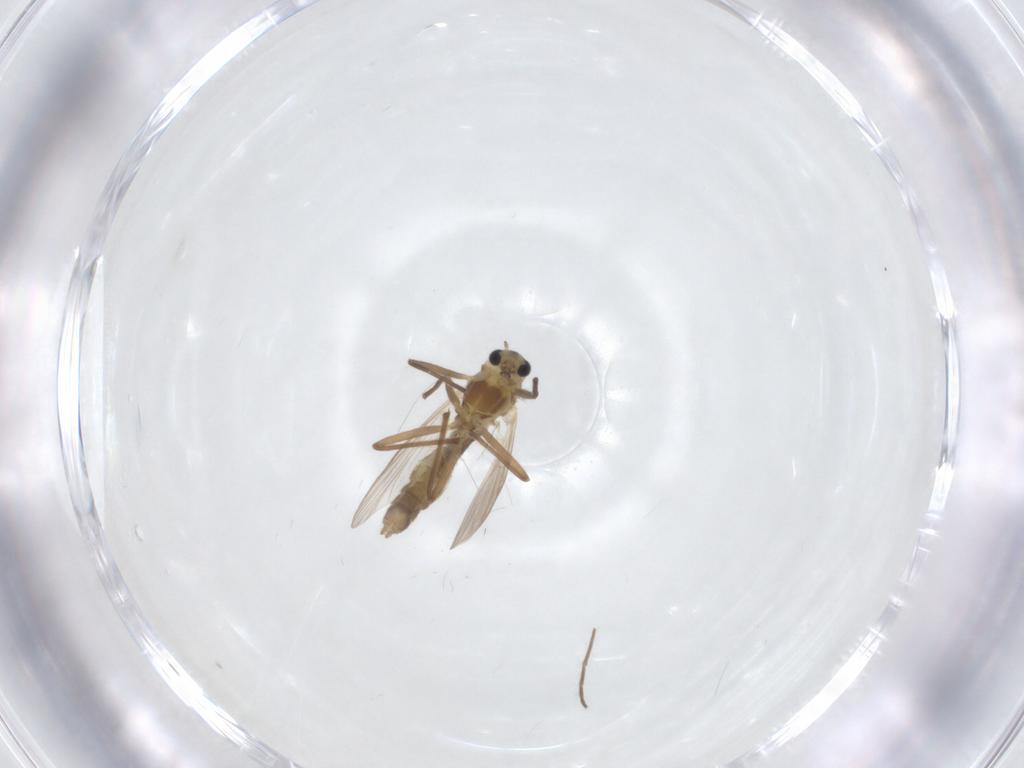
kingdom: Animalia
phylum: Arthropoda
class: Insecta
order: Diptera
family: Chironomidae
